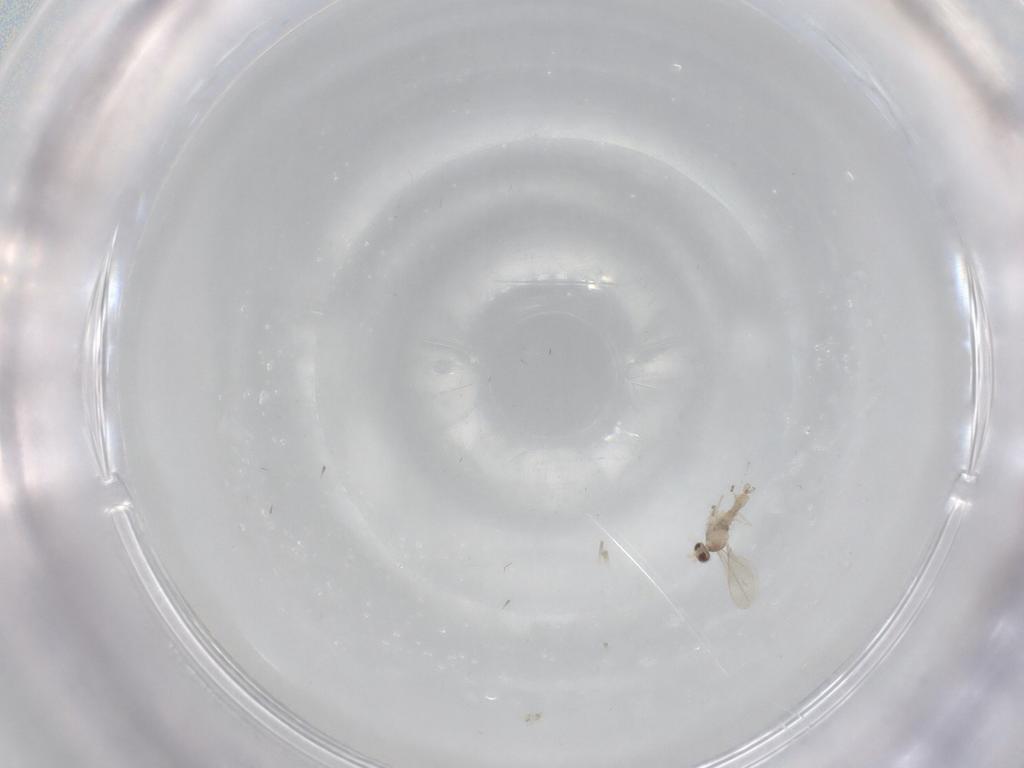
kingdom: Animalia
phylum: Arthropoda
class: Insecta
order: Diptera
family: Cecidomyiidae
